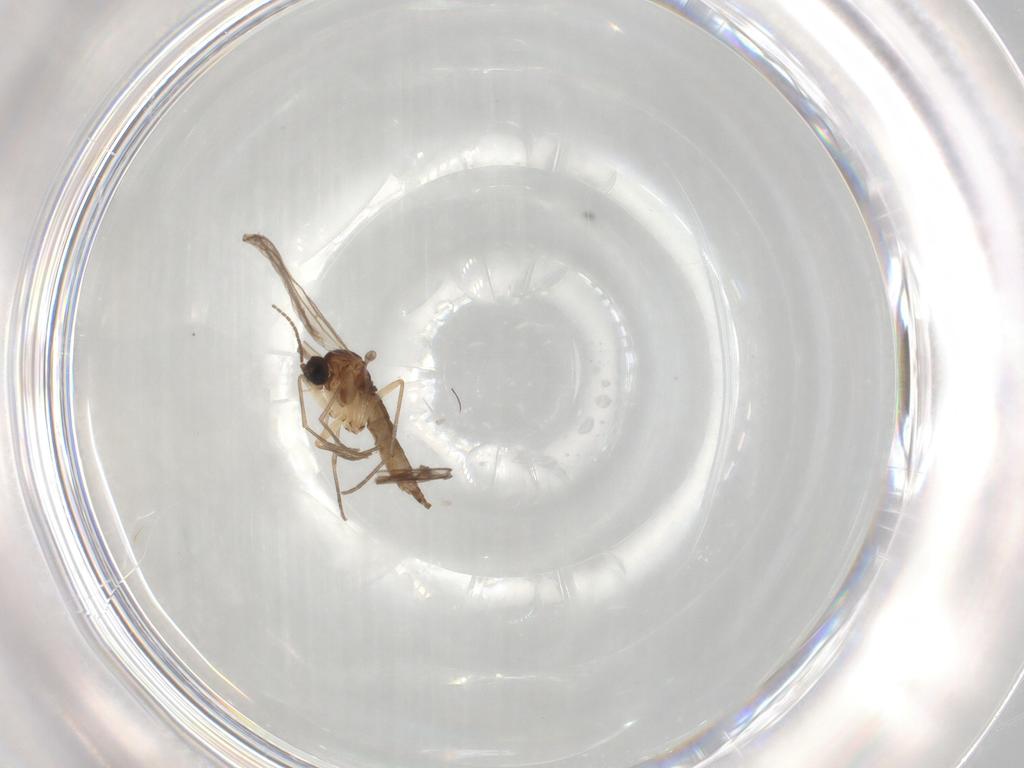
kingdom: Animalia
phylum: Arthropoda
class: Insecta
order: Diptera
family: Sciaridae
